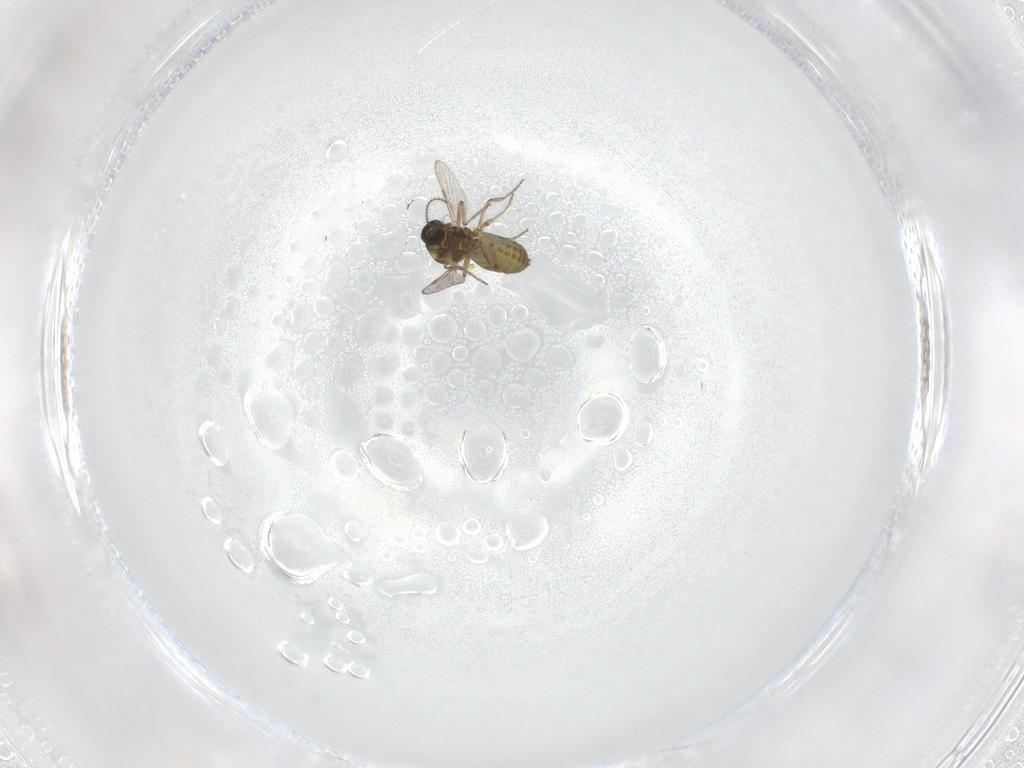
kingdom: Animalia
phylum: Arthropoda
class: Insecta
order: Diptera
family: Ceratopogonidae
